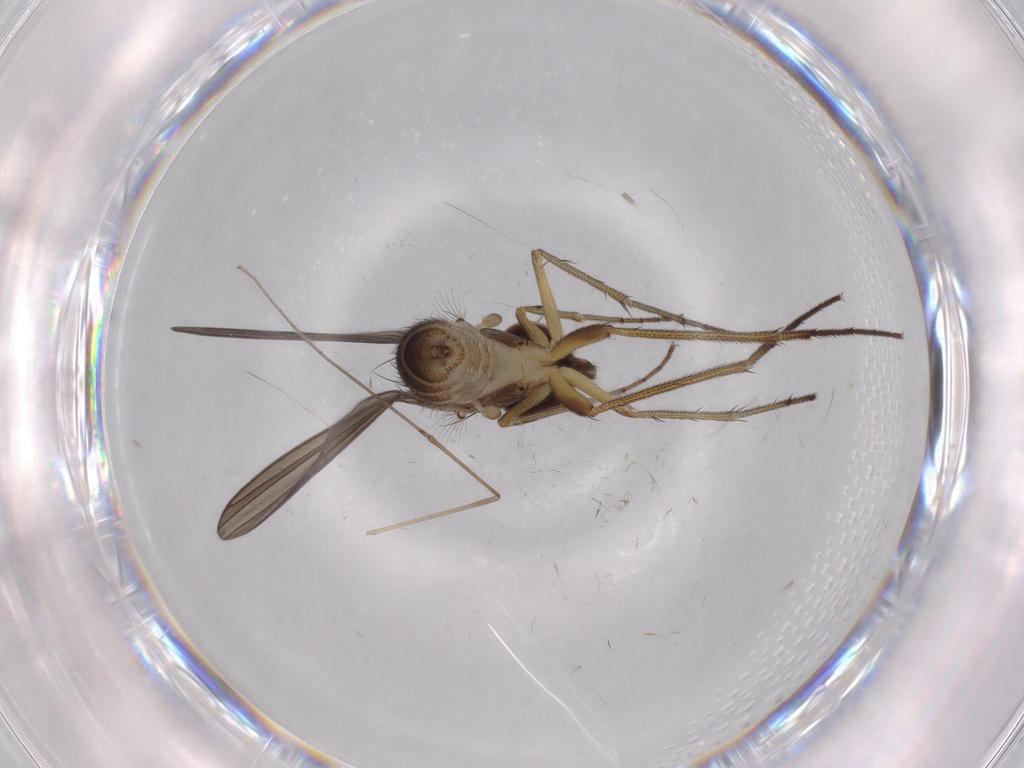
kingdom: Animalia
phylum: Arthropoda
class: Insecta
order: Diptera
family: Dolichopodidae
